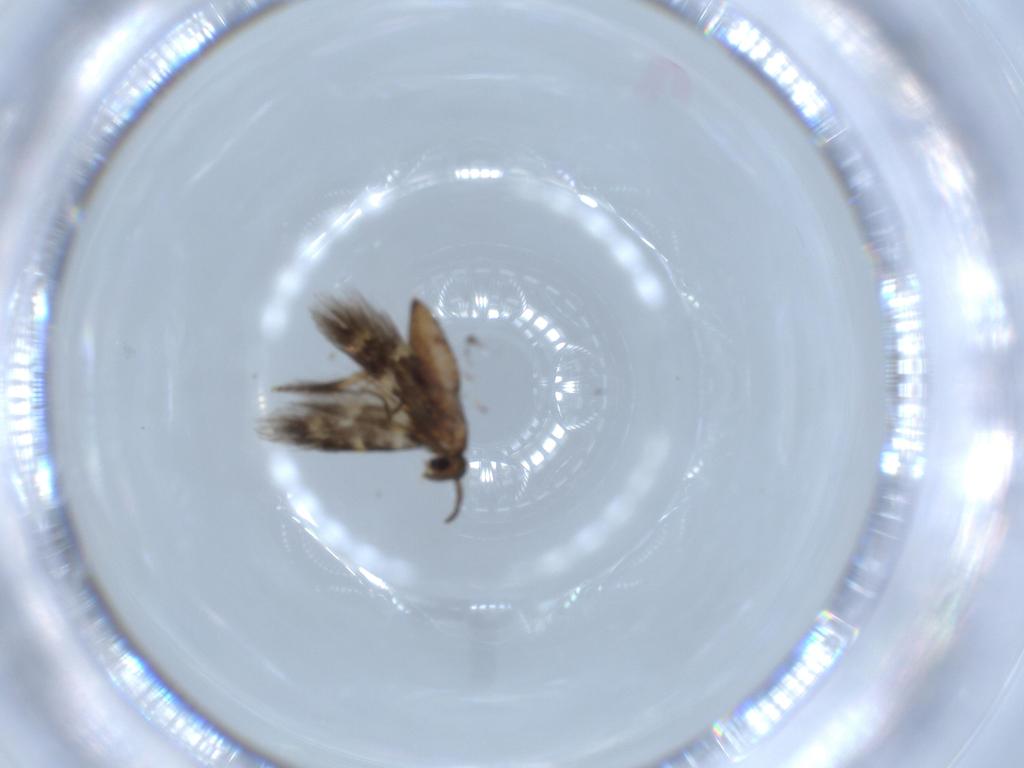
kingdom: Animalia
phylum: Arthropoda
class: Insecta
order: Lepidoptera
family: Heliozelidae
